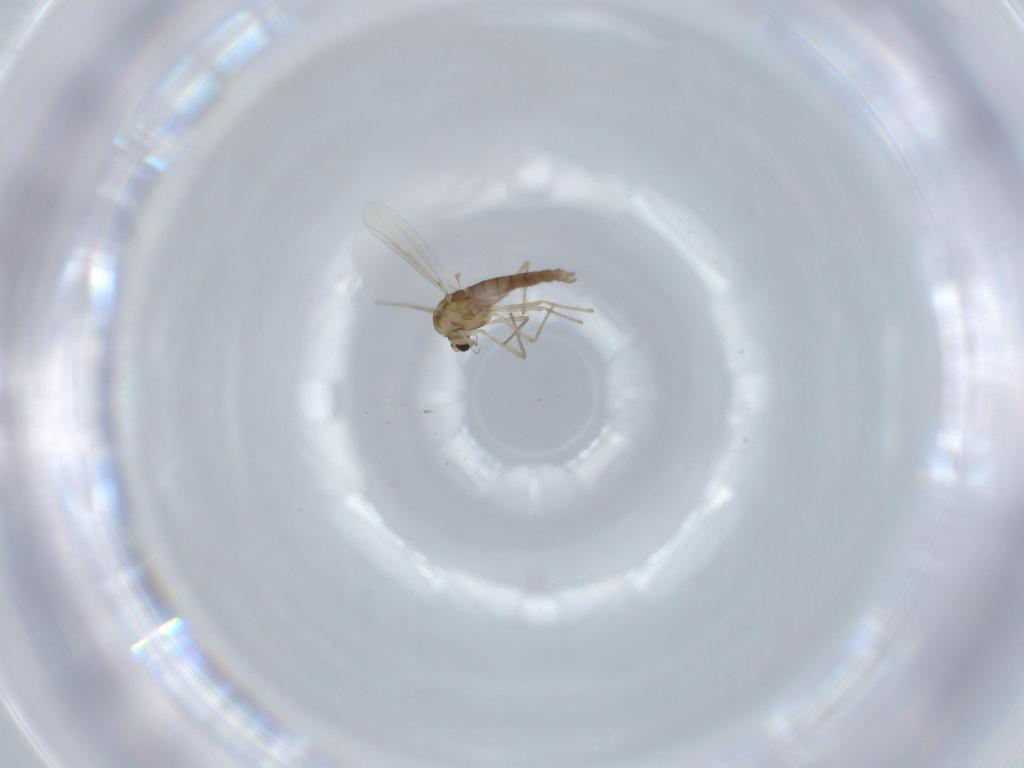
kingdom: Animalia
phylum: Arthropoda
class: Insecta
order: Diptera
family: Chironomidae
